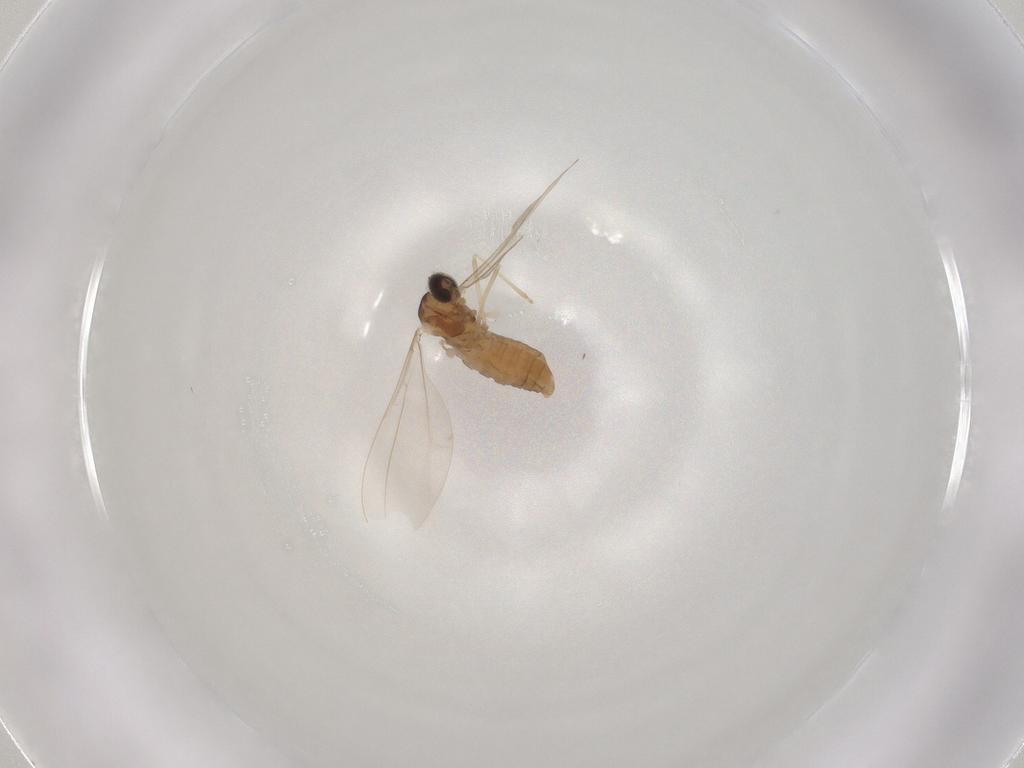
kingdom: Animalia
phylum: Arthropoda
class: Insecta
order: Diptera
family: Cecidomyiidae
